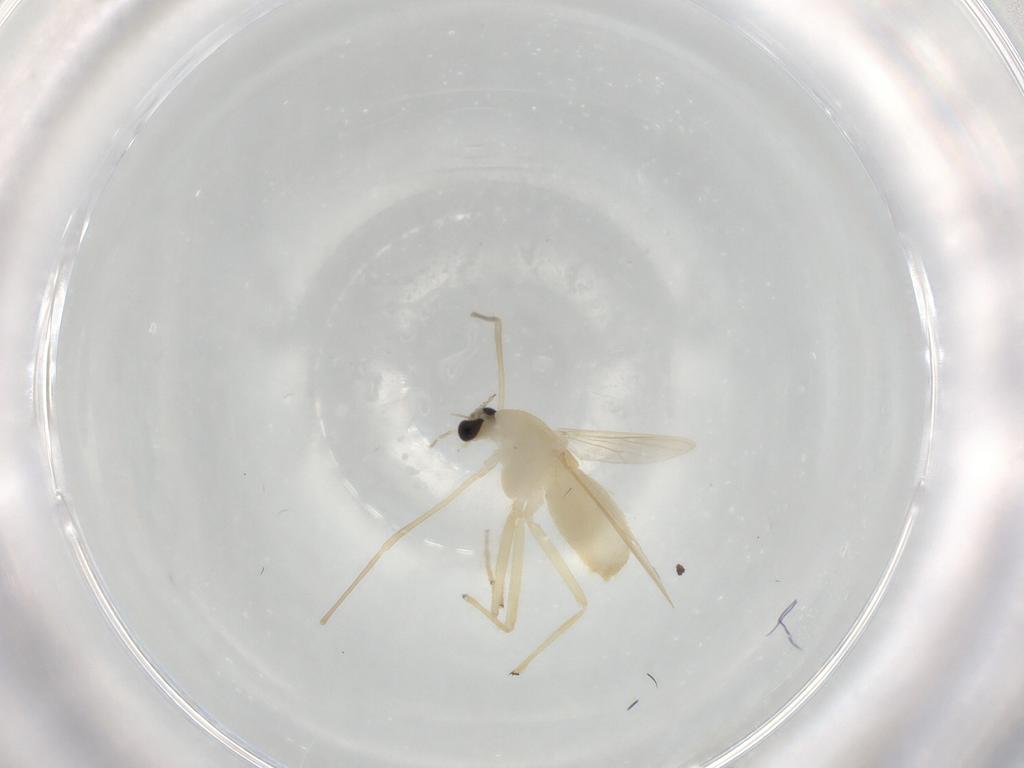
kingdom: Animalia
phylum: Arthropoda
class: Insecta
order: Diptera
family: Chironomidae
